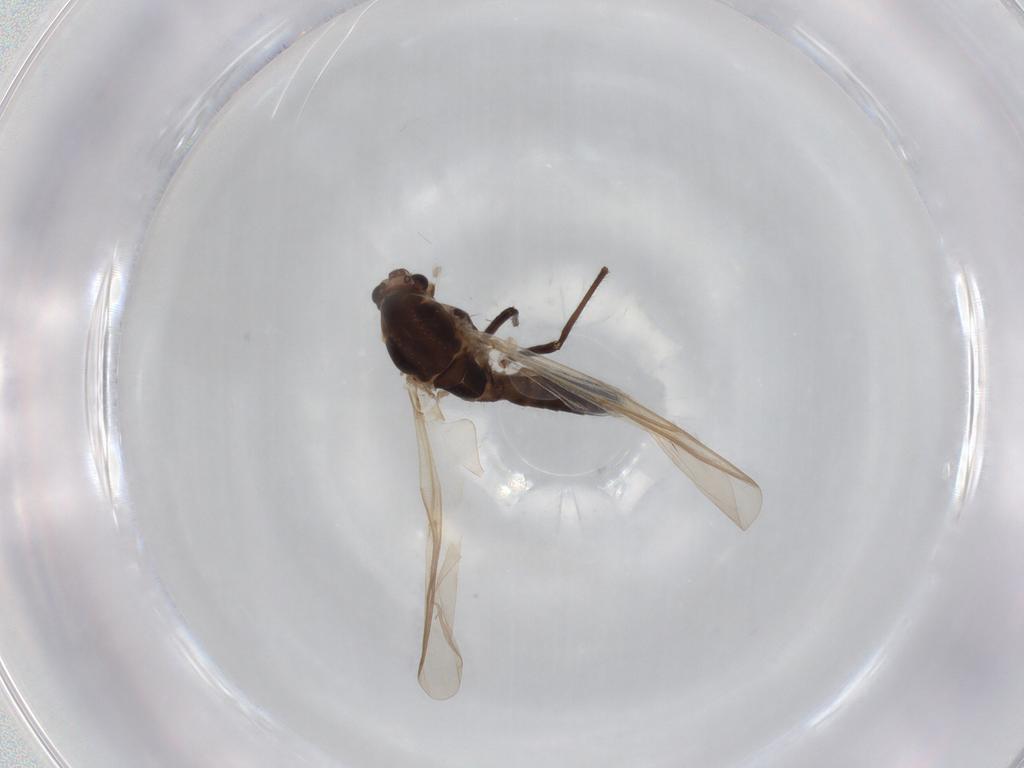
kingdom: Animalia
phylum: Arthropoda
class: Insecta
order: Diptera
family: Chironomidae
